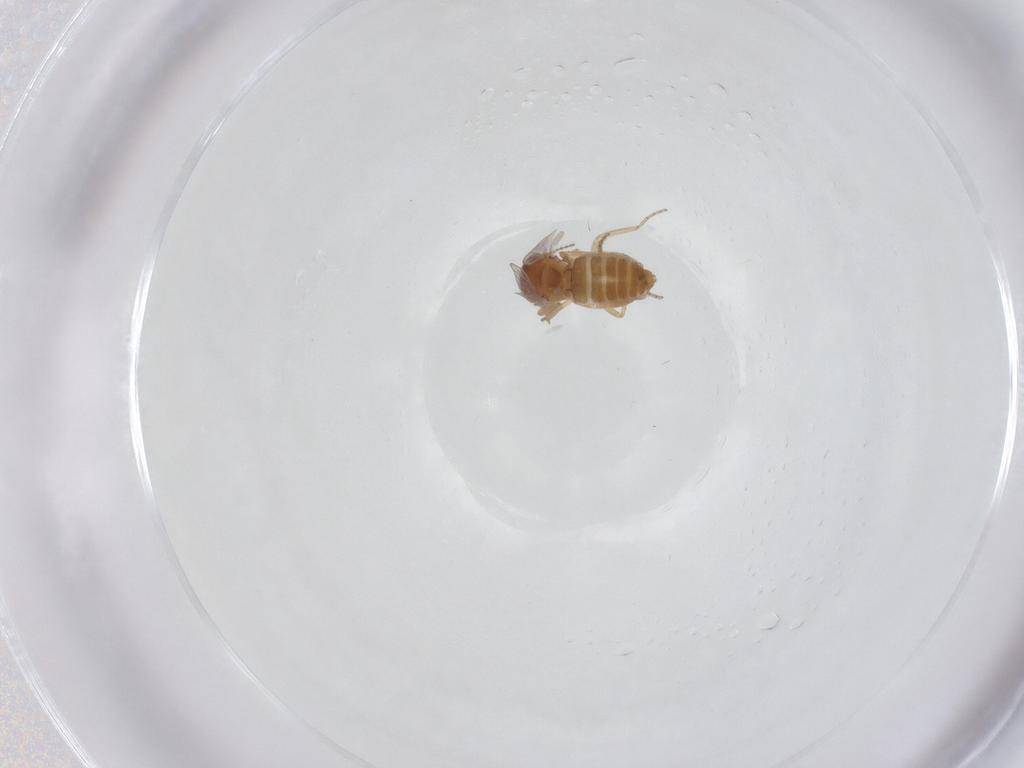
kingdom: Animalia
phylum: Arthropoda
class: Insecta
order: Diptera
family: Ceratopogonidae
